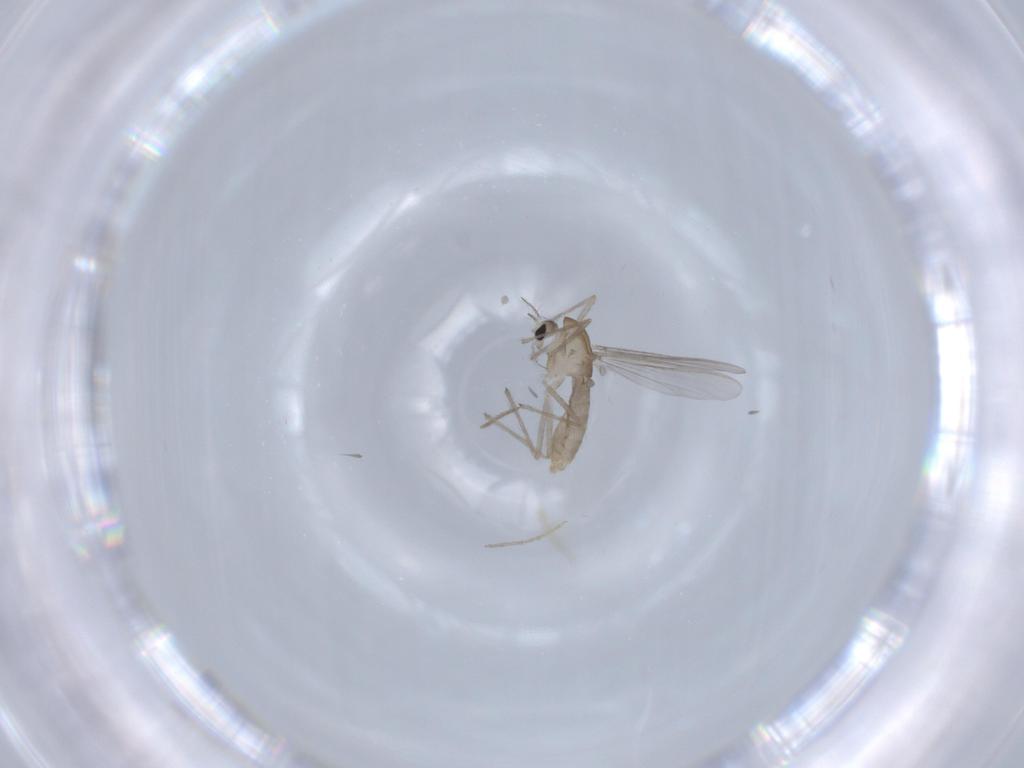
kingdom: Animalia
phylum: Arthropoda
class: Insecta
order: Diptera
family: Chironomidae
